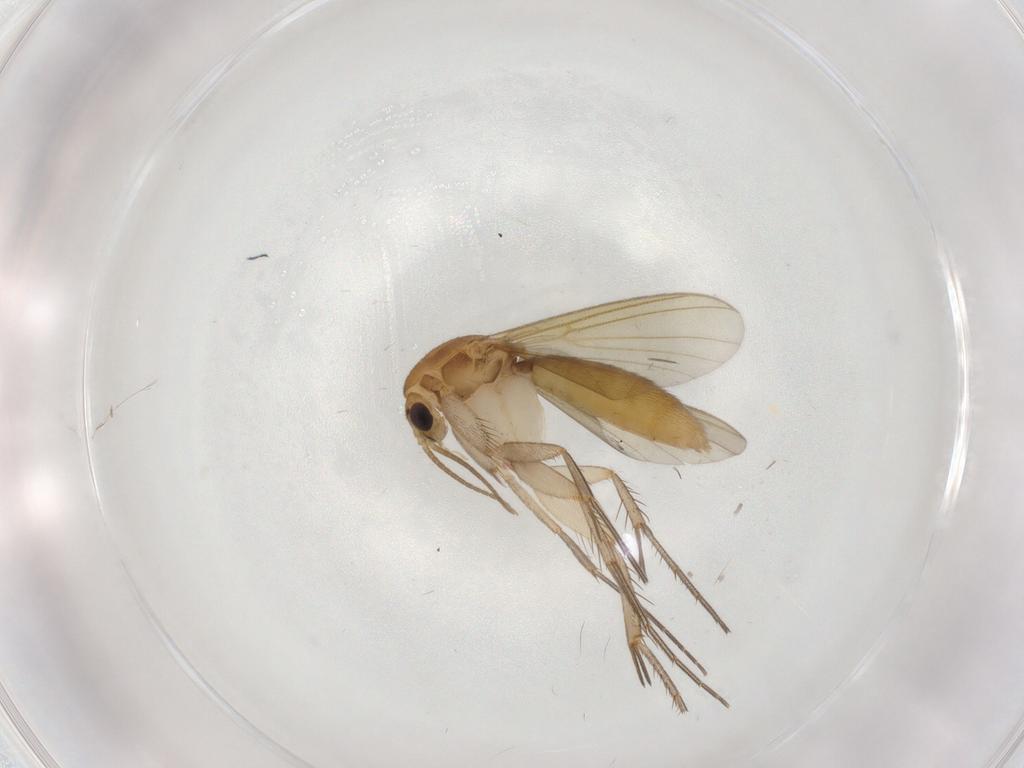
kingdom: Animalia
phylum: Arthropoda
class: Insecta
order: Diptera
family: Mycetophilidae
